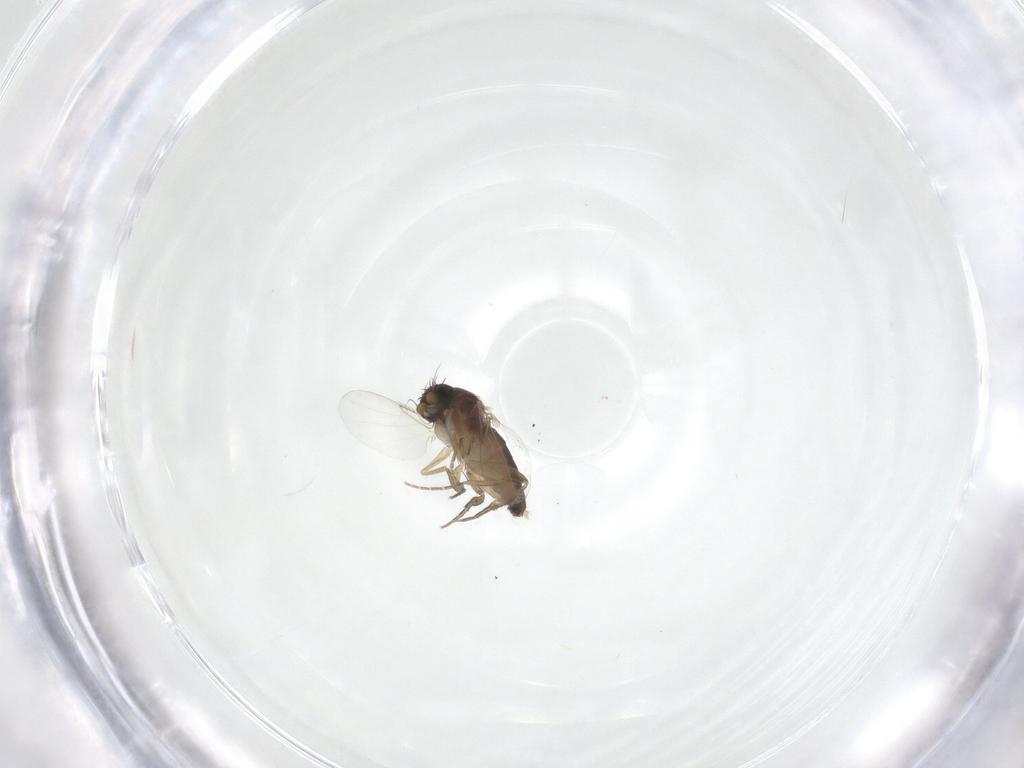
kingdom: Animalia
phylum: Arthropoda
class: Insecta
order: Diptera
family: Phoridae
